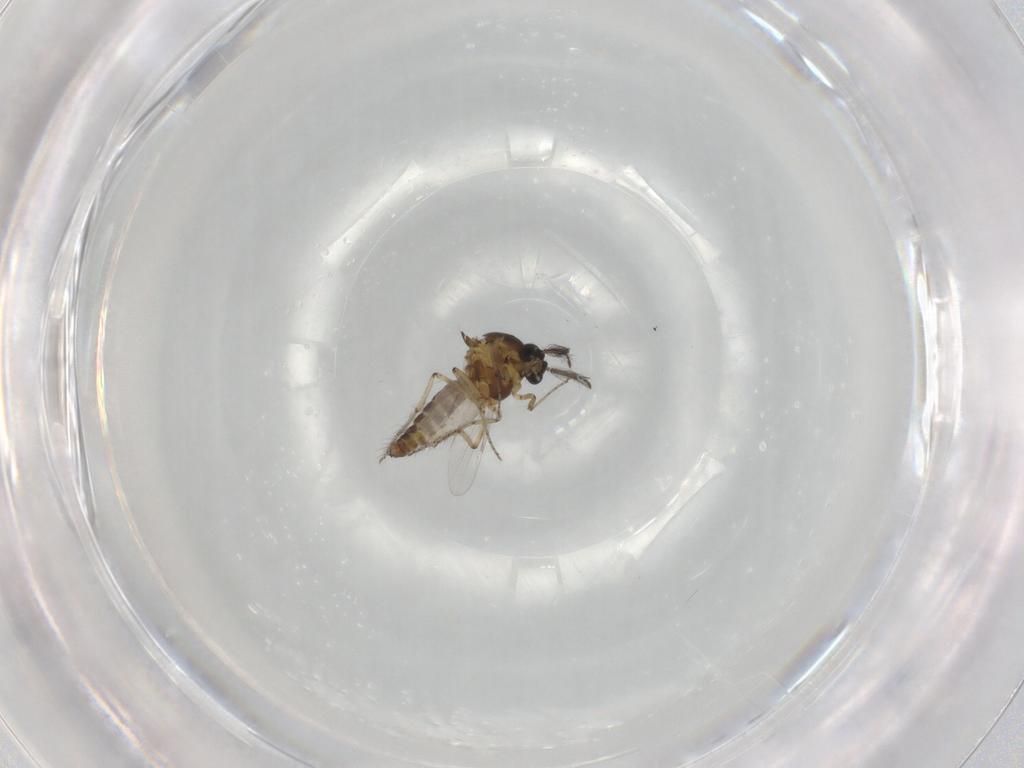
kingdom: Animalia
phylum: Arthropoda
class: Insecta
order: Diptera
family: Ceratopogonidae
